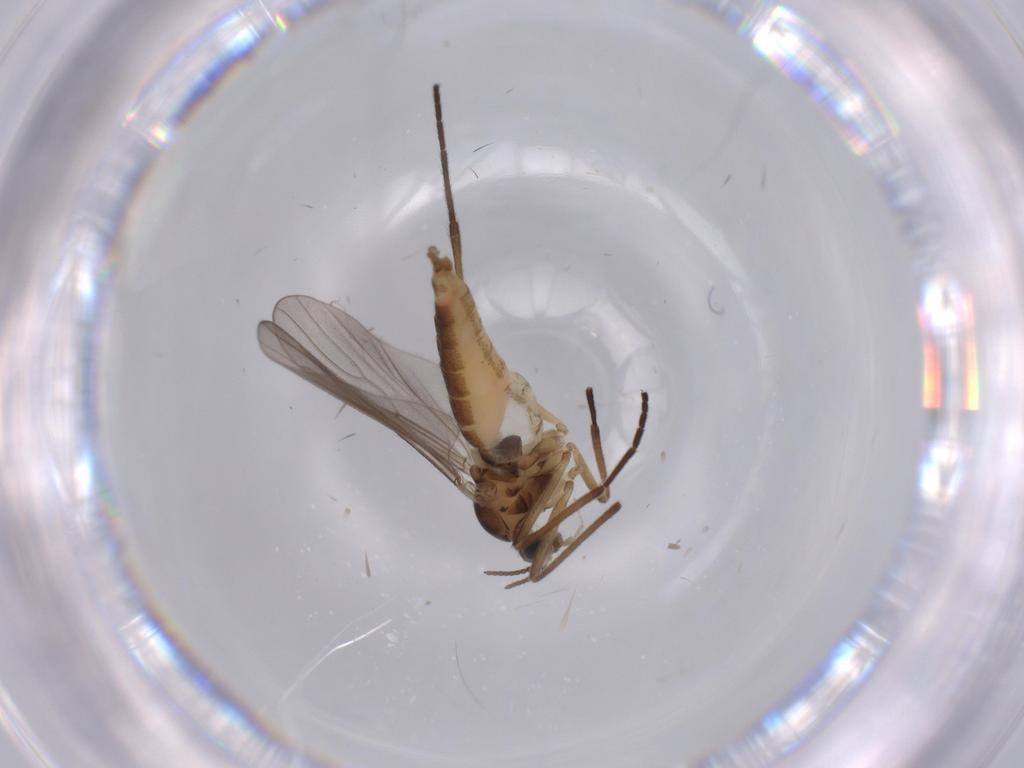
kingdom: Animalia
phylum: Arthropoda
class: Insecta
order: Diptera
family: Cecidomyiidae
